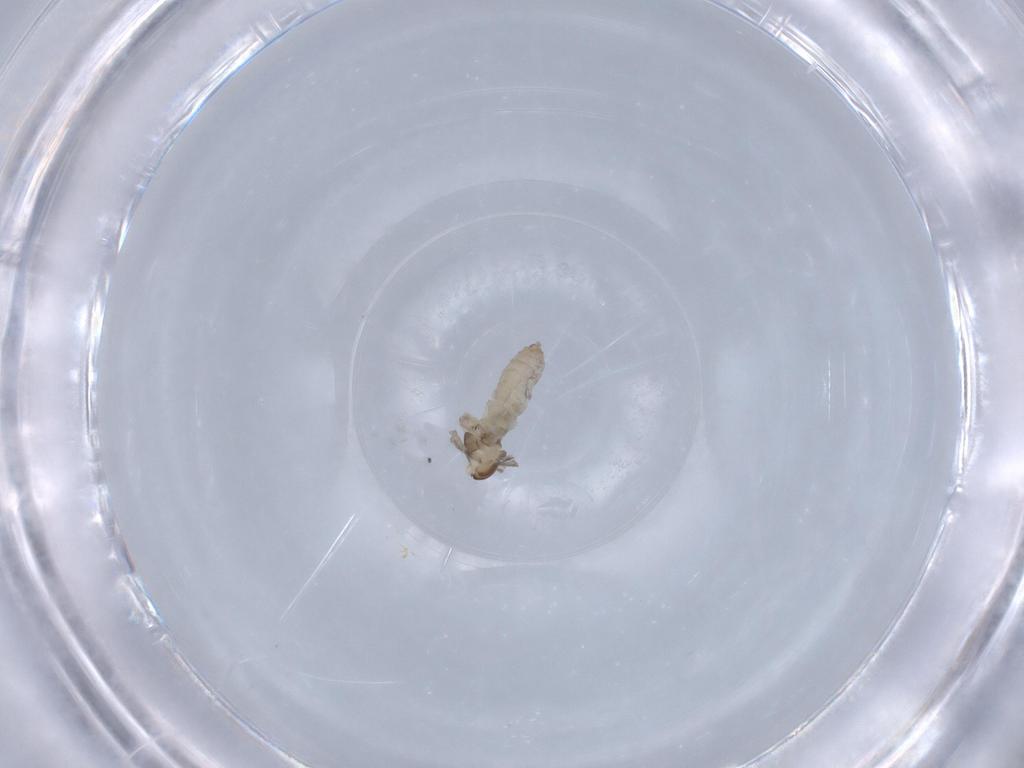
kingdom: Animalia
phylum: Arthropoda
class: Insecta
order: Diptera
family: Cecidomyiidae
